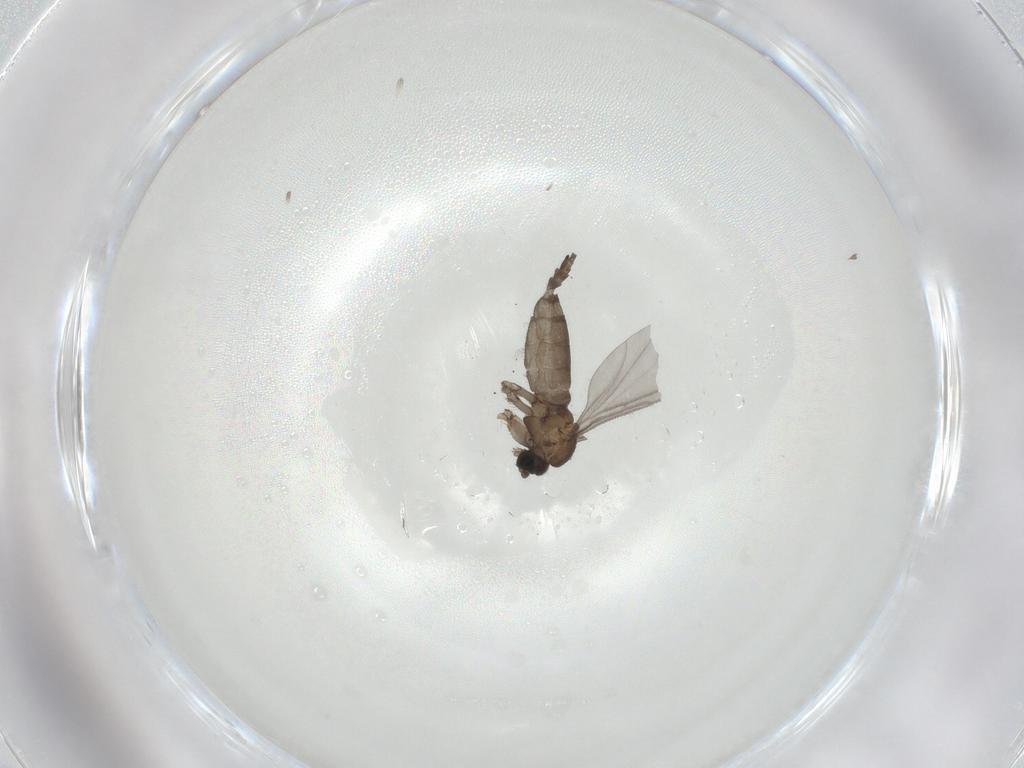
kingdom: Animalia
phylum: Arthropoda
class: Insecta
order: Diptera
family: Sciaridae
